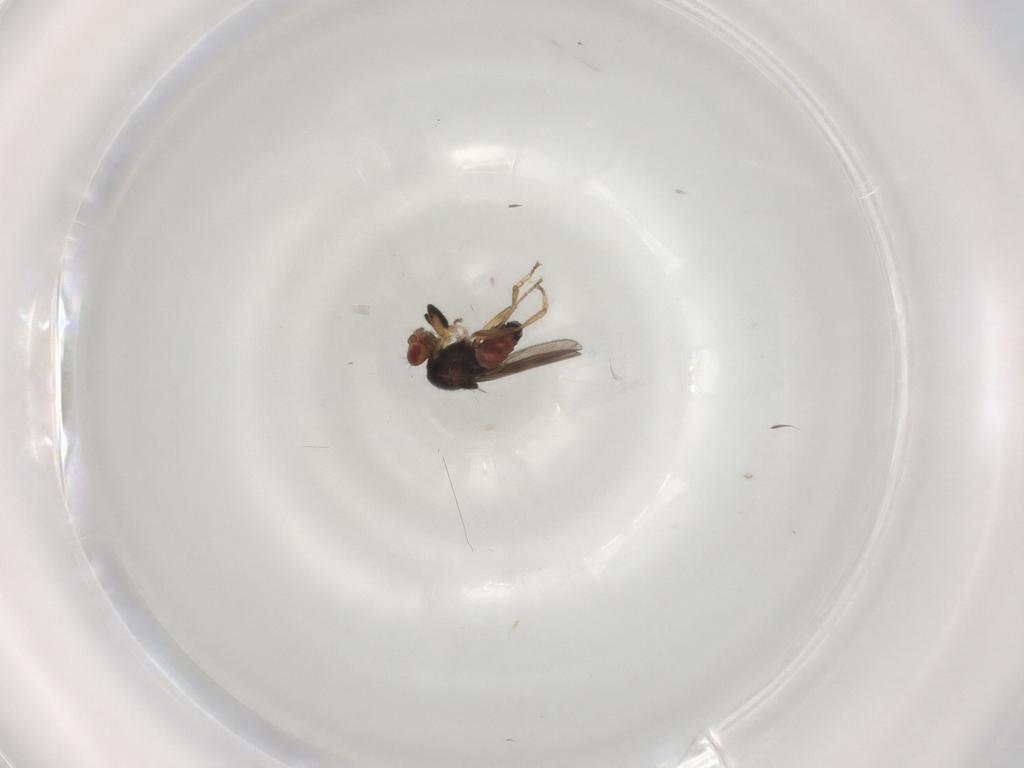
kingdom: Animalia
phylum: Arthropoda
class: Insecta
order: Diptera
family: Sphaeroceridae
